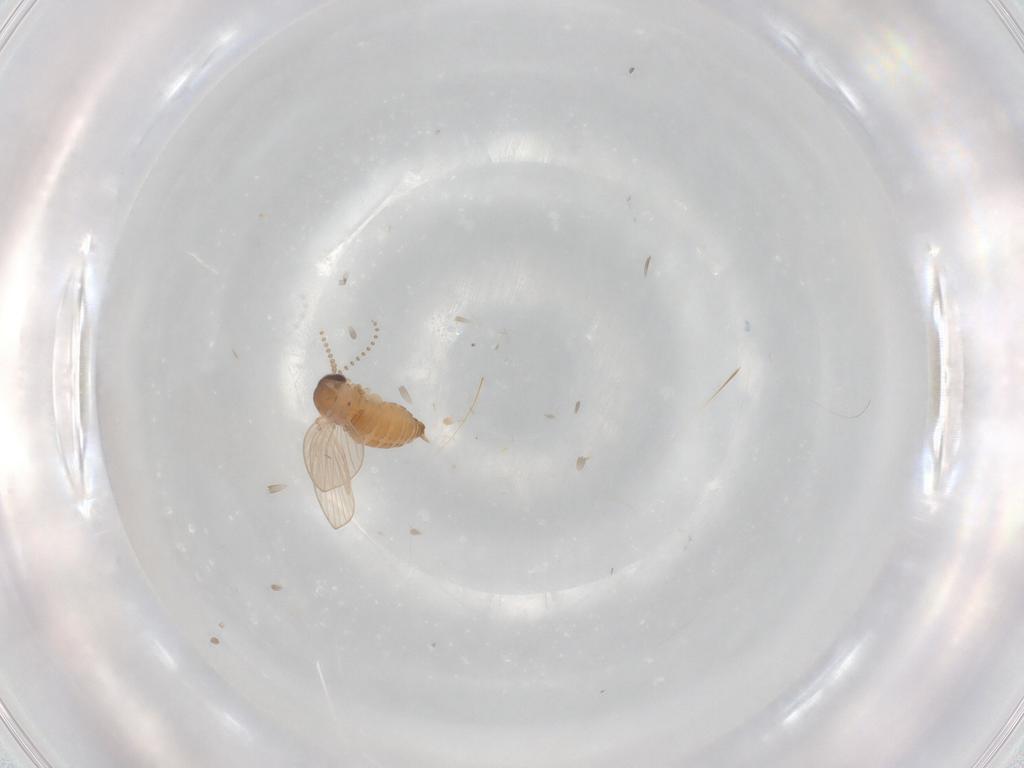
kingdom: Animalia
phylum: Arthropoda
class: Insecta
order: Diptera
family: Psychodidae
